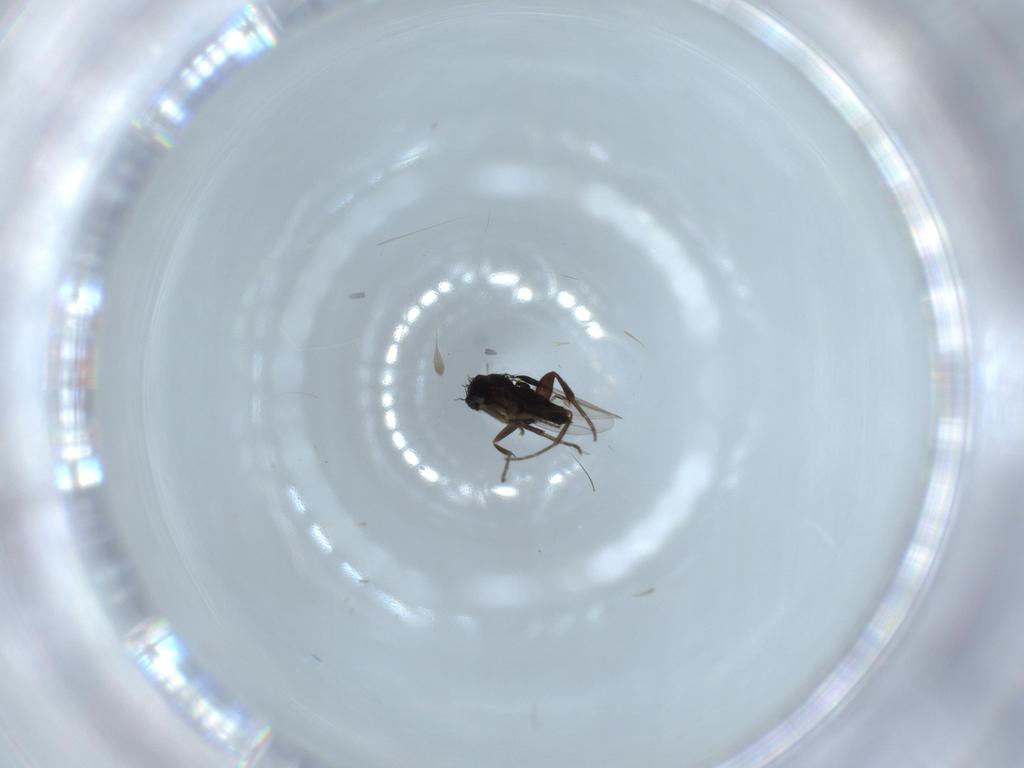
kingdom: Animalia
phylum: Arthropoda
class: Insecta
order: Diptera
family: Phoridae
